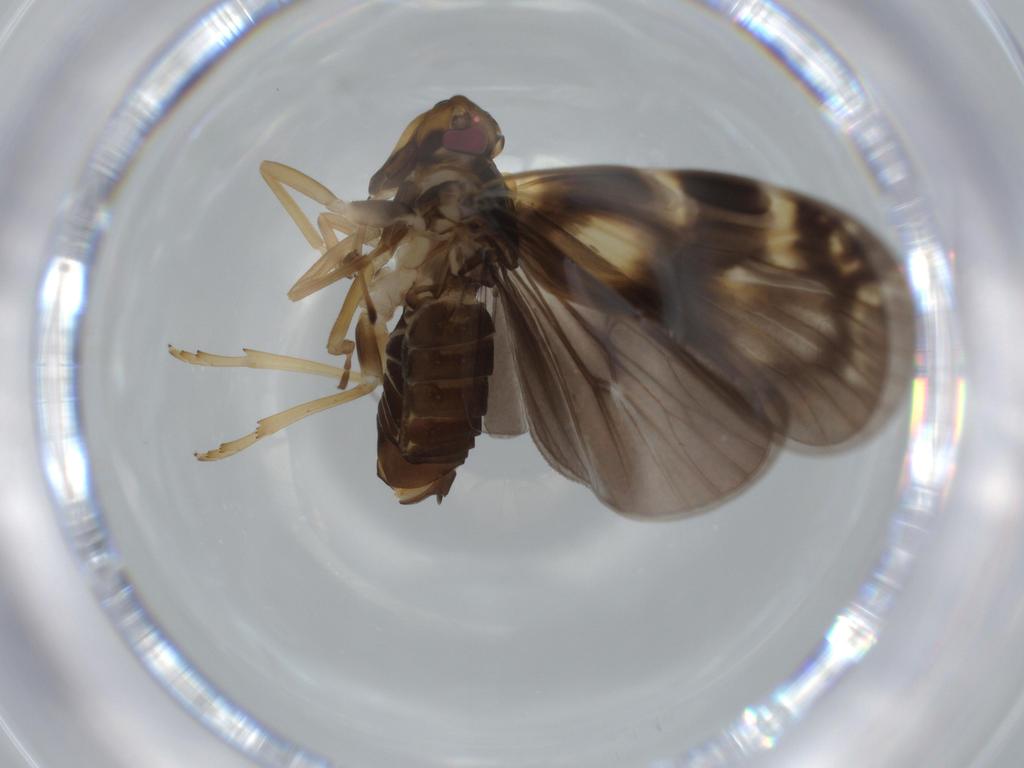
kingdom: Animalia
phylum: Arthropoda
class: Insecta
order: Hemiptera
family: Cixiidae
